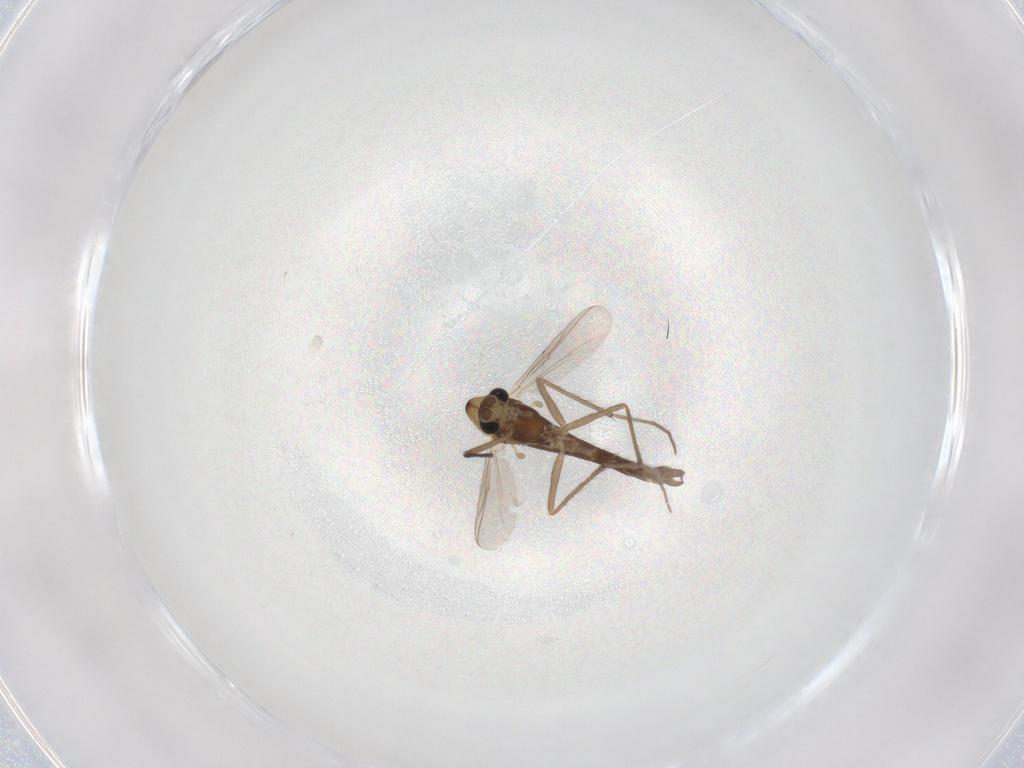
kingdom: Animalia
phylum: Arthropoda
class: Insecta
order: Diptera
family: Chironomidae
